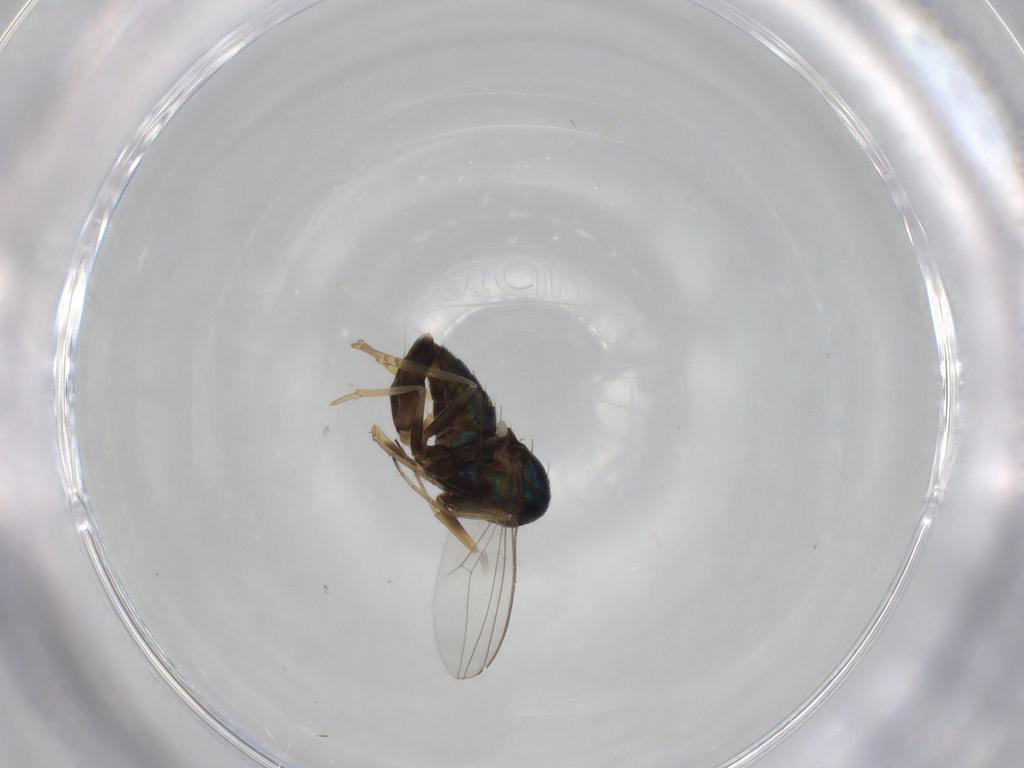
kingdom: Animalia
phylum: Arthropoda
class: Insecta
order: Diptera
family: Dolichopodidae
